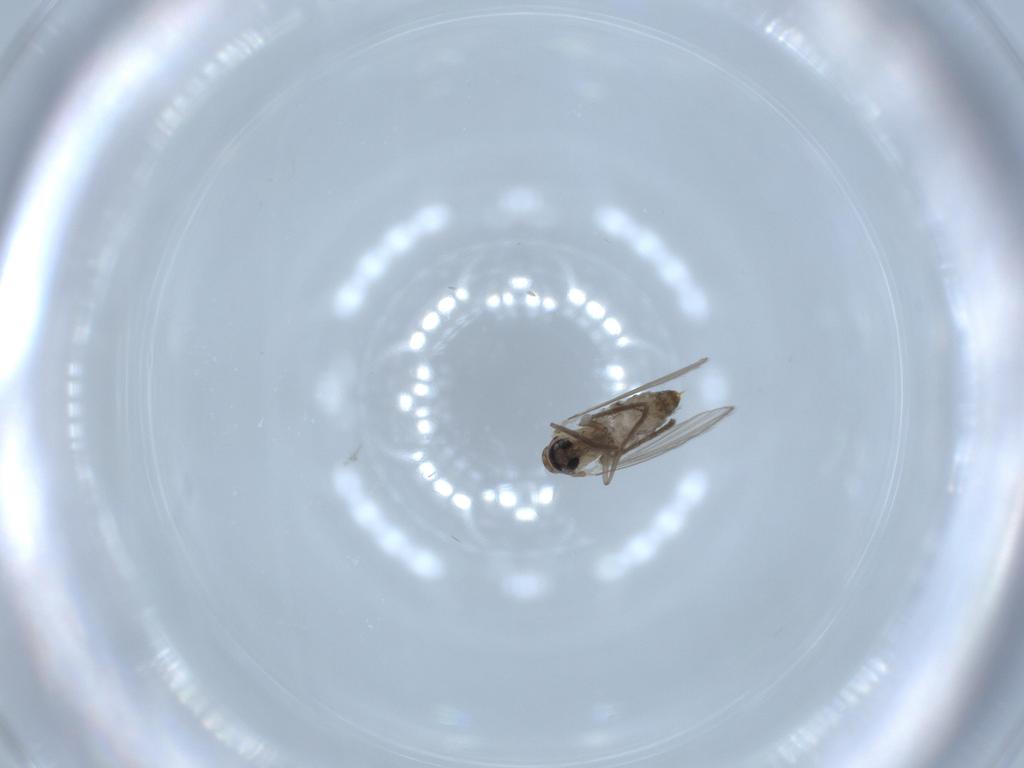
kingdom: Animalia
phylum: Arthropoda
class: Insecta
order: Diptera
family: Psychodidae
